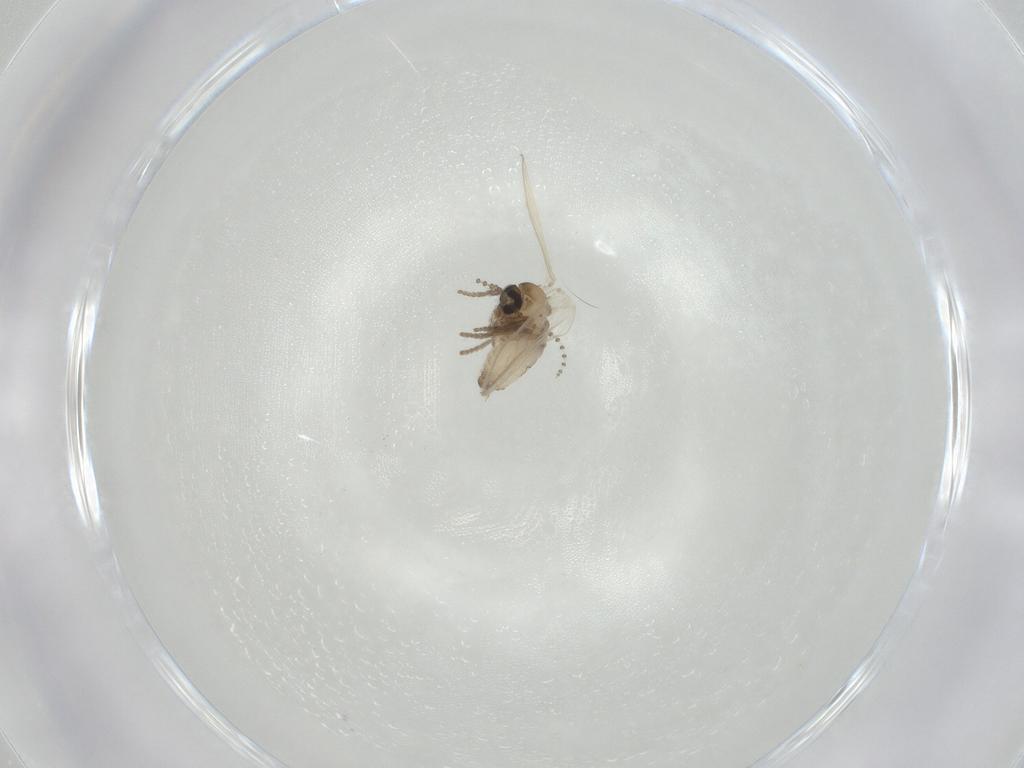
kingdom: Animalia
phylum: Arthropoda
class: Insecta
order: Diptera
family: Psychodidae
